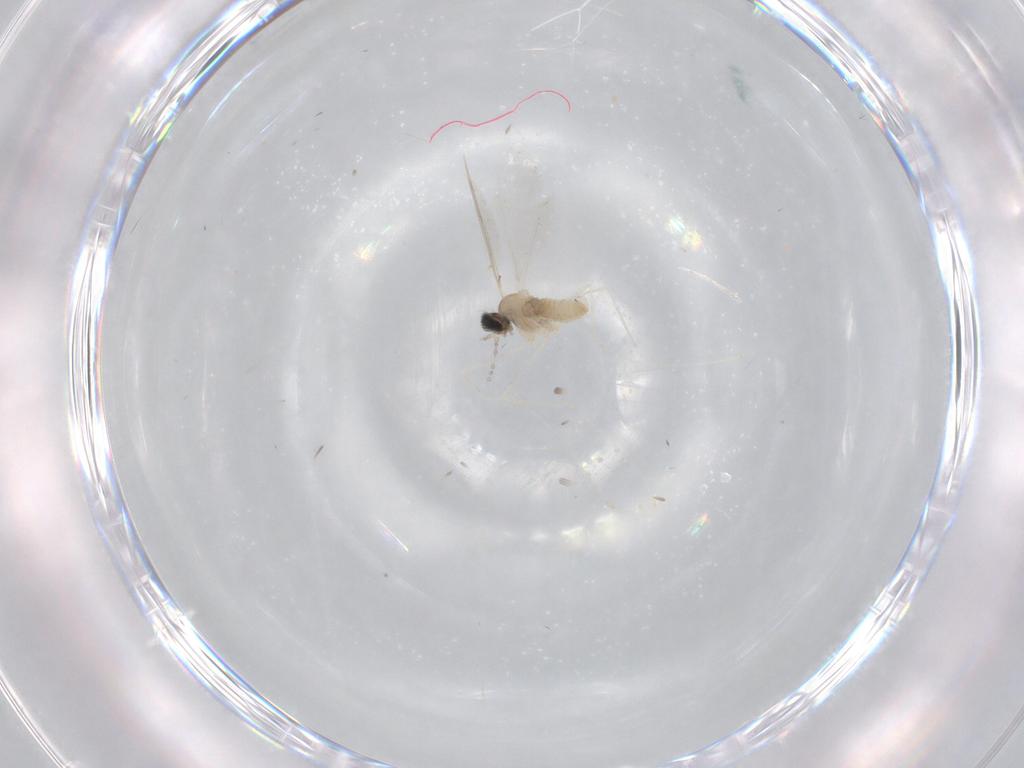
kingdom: Animalia
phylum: Arthropoda
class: Insecta
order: Diptera
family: Cecidomyiidae
